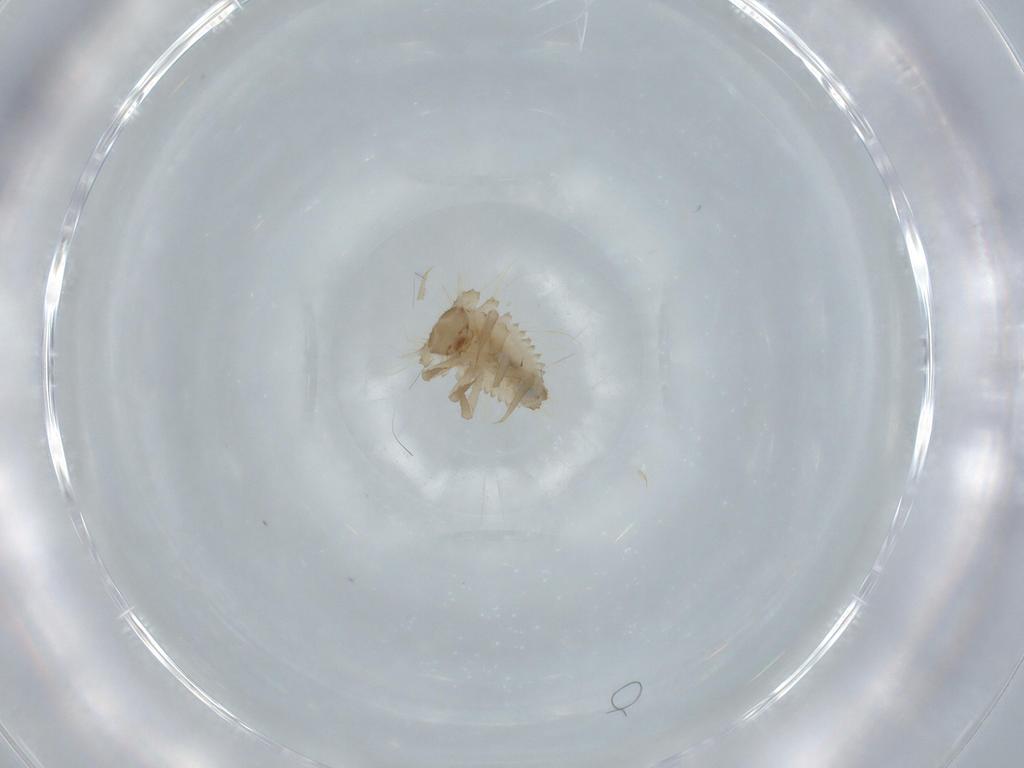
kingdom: Animalia
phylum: Arthropoda
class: Insecta
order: Coleoptera
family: Anamorphidae
